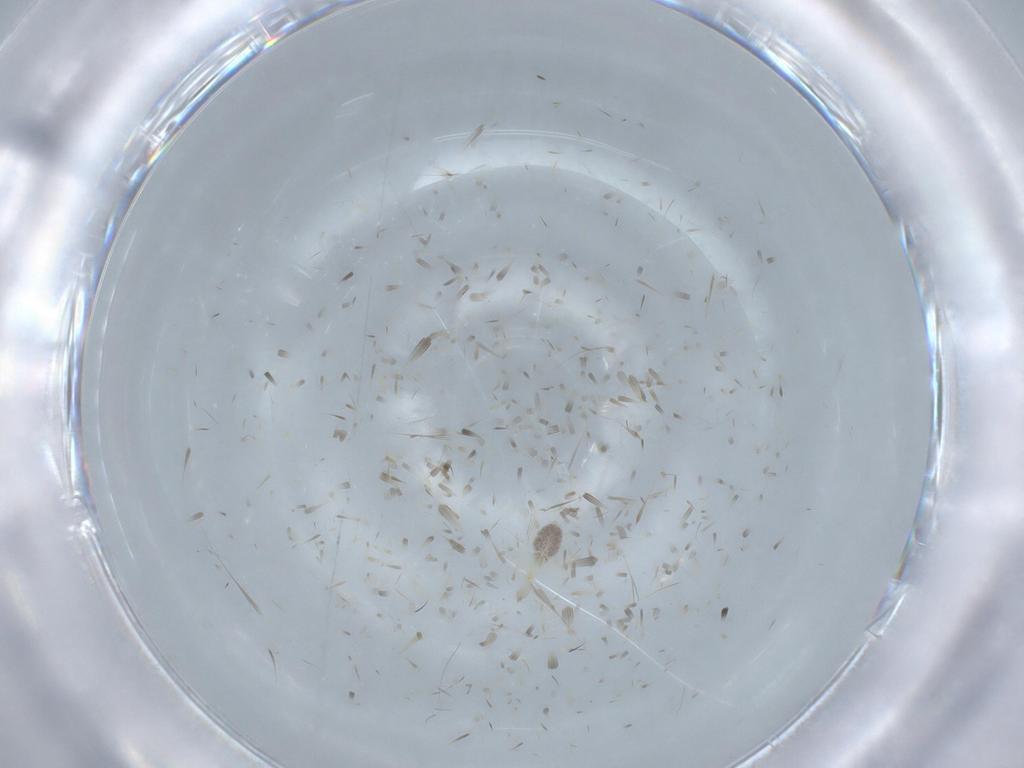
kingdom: Animalia
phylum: Arthropoda
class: Arachnida
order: Trombidiformes
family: Erythraeidae
